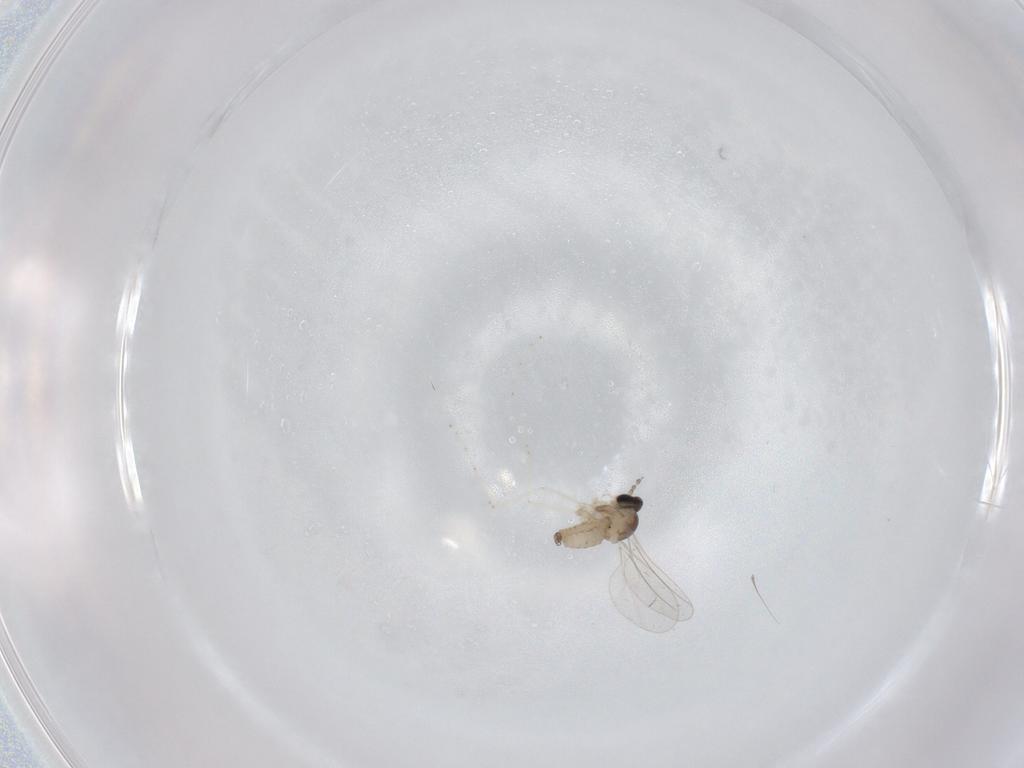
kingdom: Animalia
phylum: Arthropoda
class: Insecta
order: Diptera
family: Cecidomyiidae
